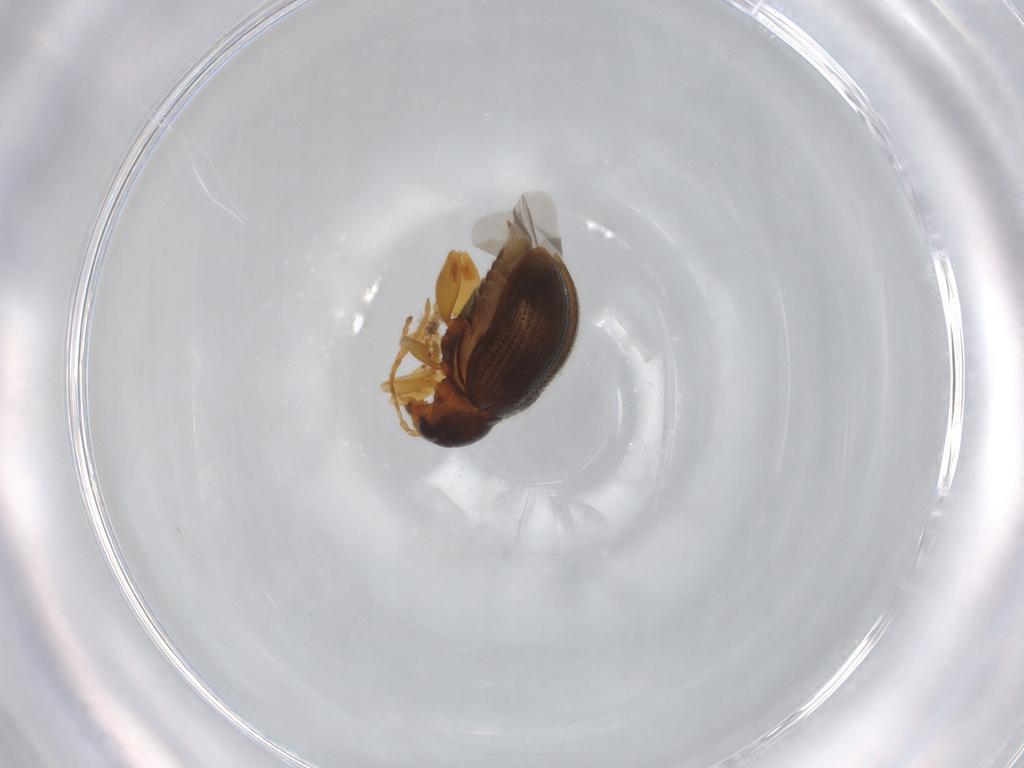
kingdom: Animalia
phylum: Arthropoda
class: Insecta
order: Coleoptera
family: Chrysomelidae
